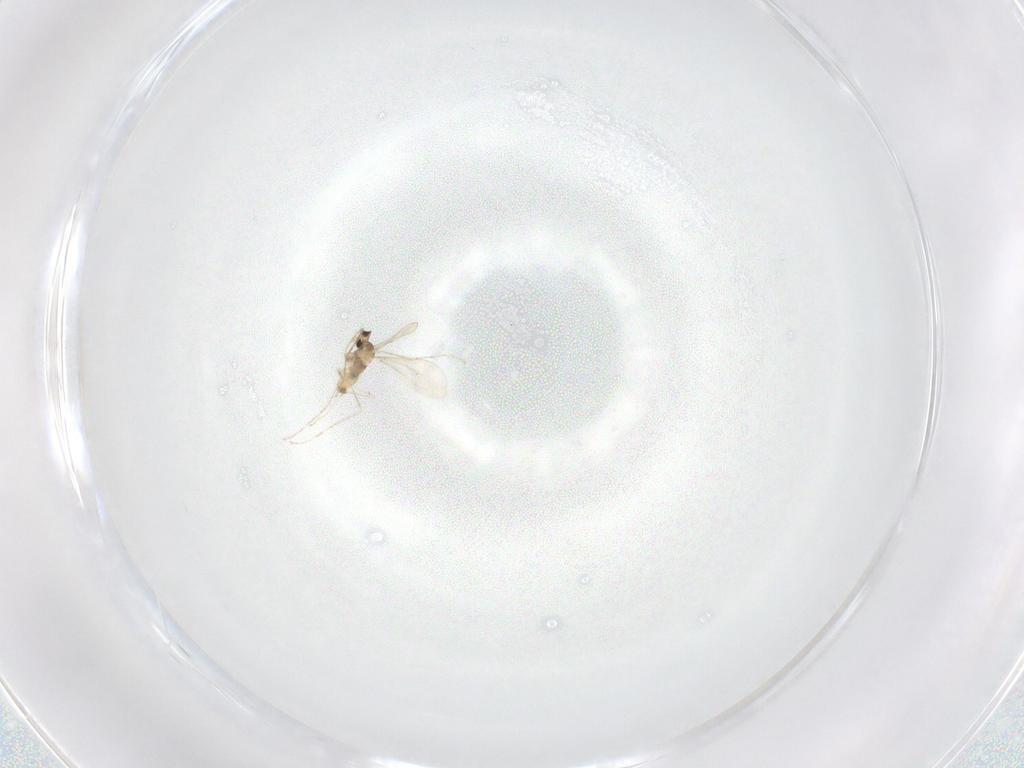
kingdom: Animalia
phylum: Arthropoda
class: Insecta
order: Diptera
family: Cecidomyiidae
